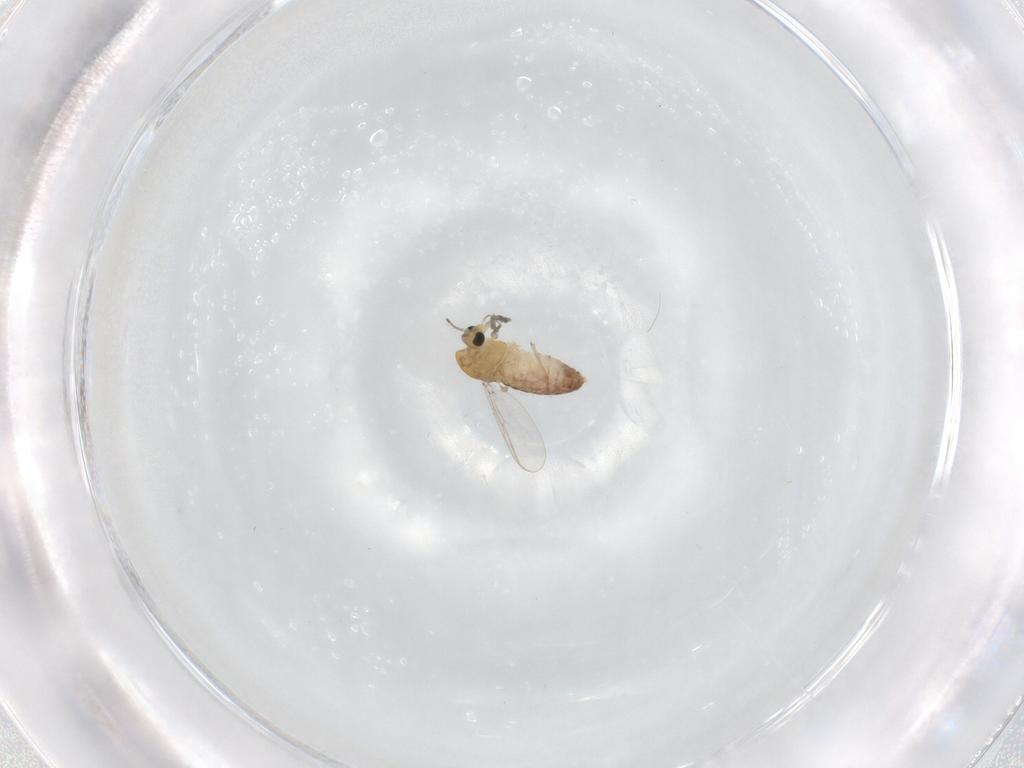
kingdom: Animalia
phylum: Arthropoda
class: Insecta
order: Diptera
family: Chironomidae
